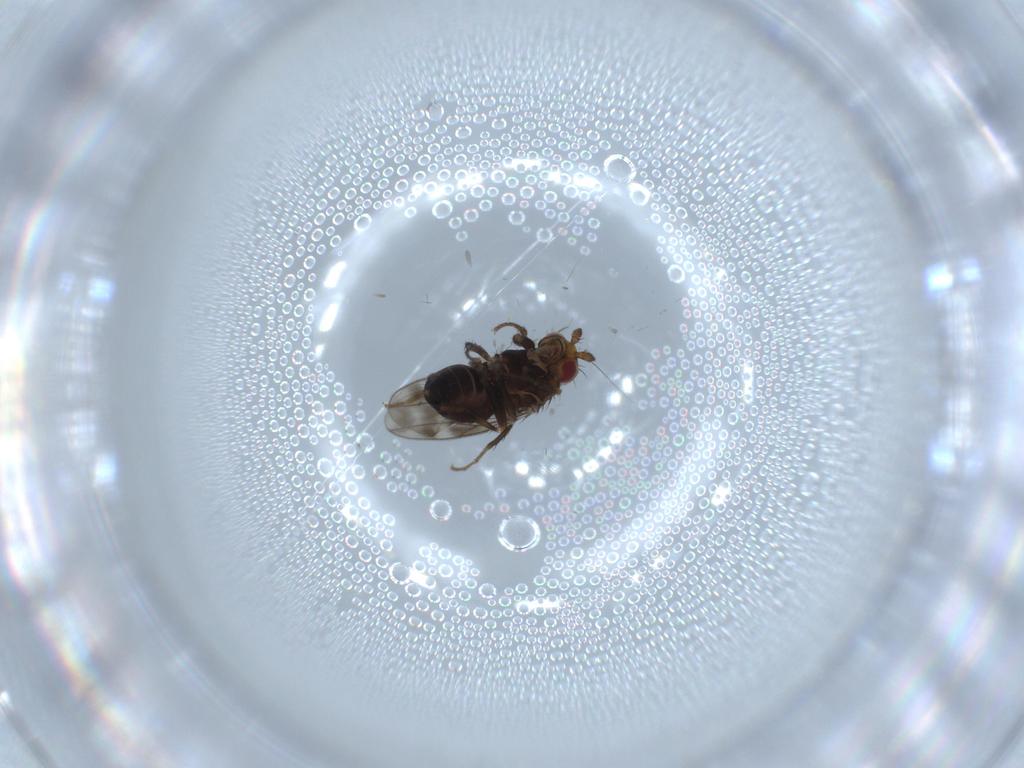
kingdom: Animalia
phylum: Arthropoda
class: Insecta
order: Diptera
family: Sphaeroceridae
